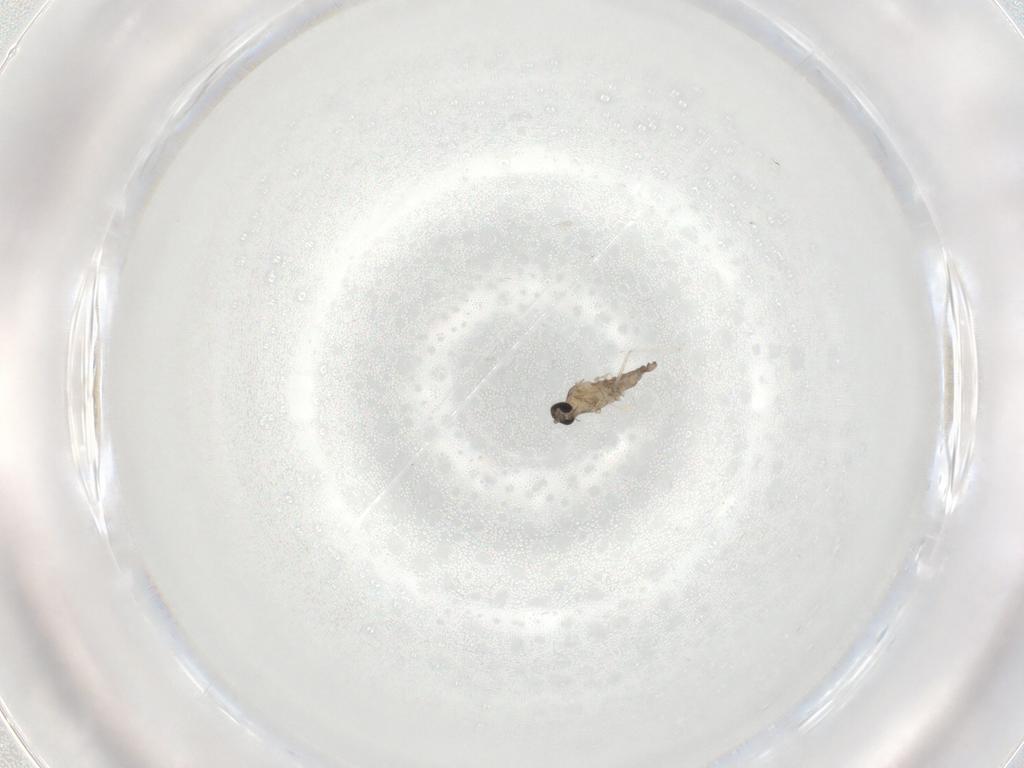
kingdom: Animalia
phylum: Arthropoda
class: Insecta
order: Diptera
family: Cecidomyiidae
